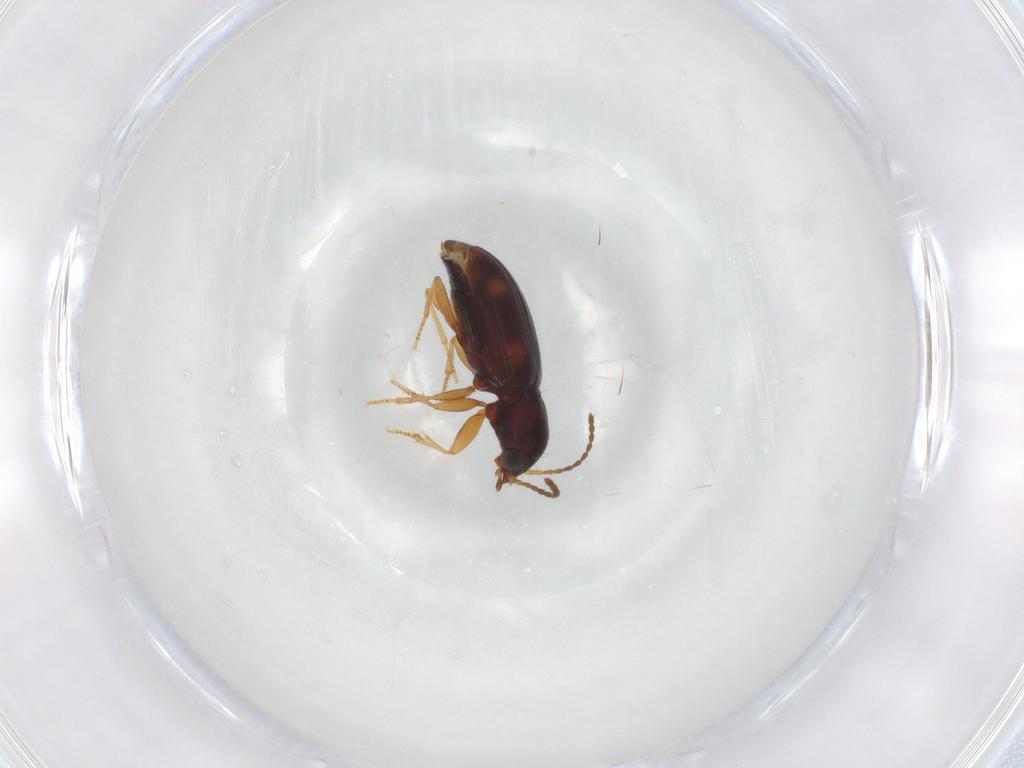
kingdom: Animalia
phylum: Arthropoda
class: Insecta
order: Coleoptera
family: Carabidae
